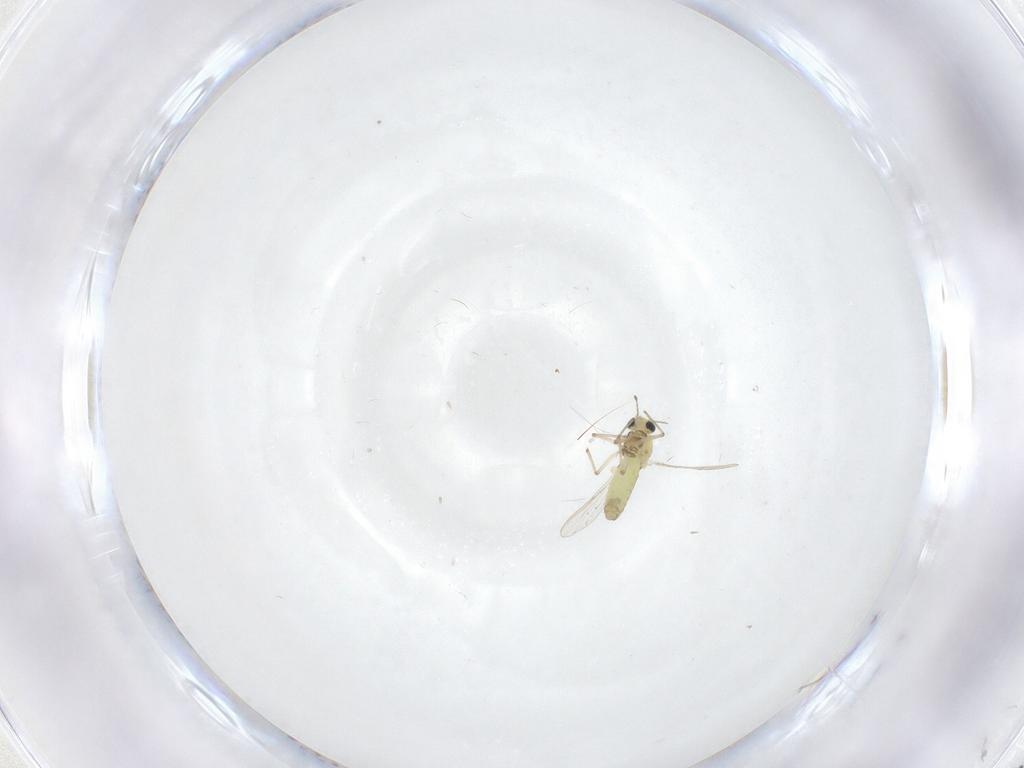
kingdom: Animalia
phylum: Arthropoda
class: Insecta
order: Diptera
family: Chironomidae
